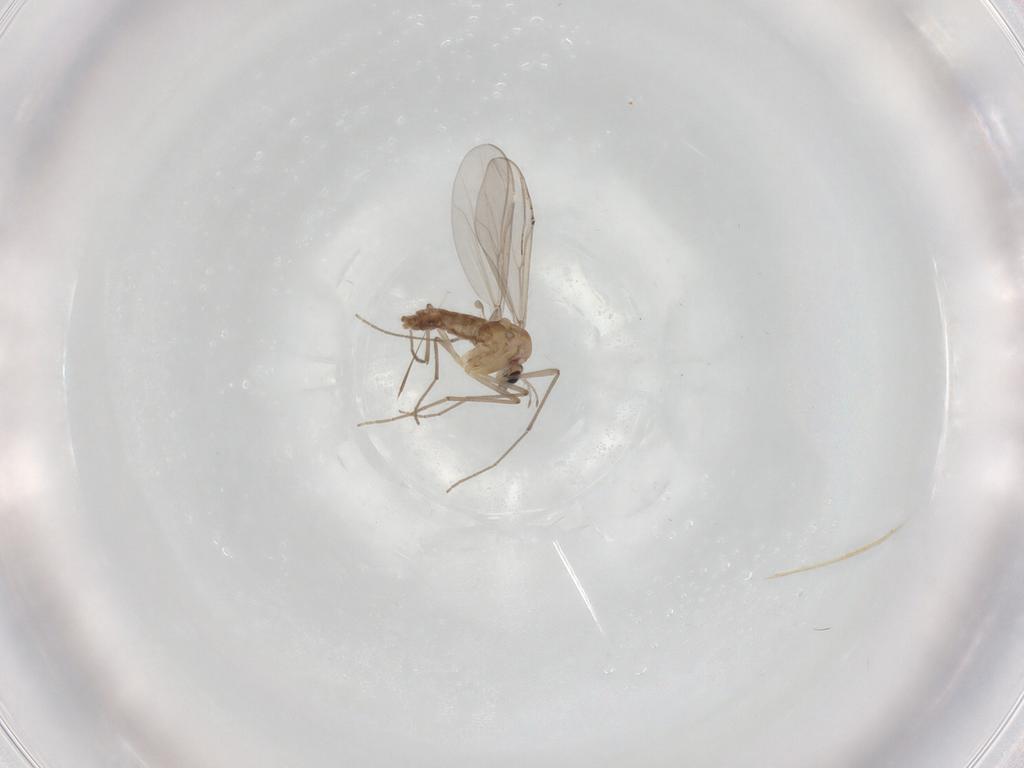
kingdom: Animalia
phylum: Arthropoda
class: Insecta
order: Diptera
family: Chironomidae
